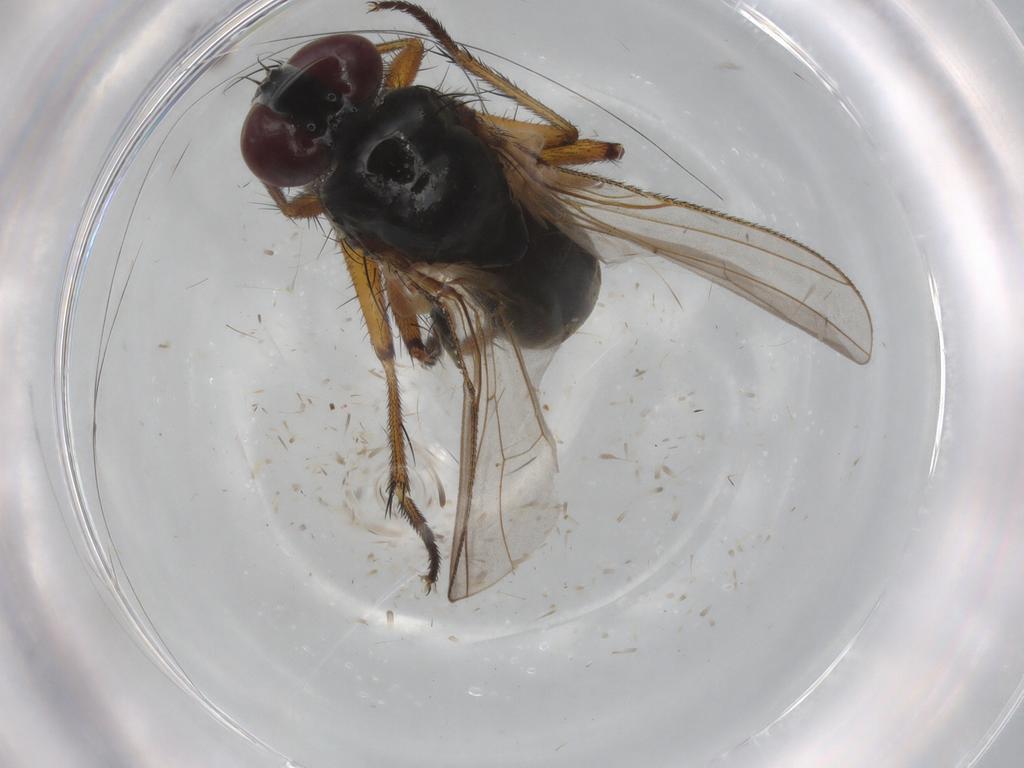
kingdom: Animalia
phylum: Arthropoda
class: Insecta
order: Diptera
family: Muscidae
